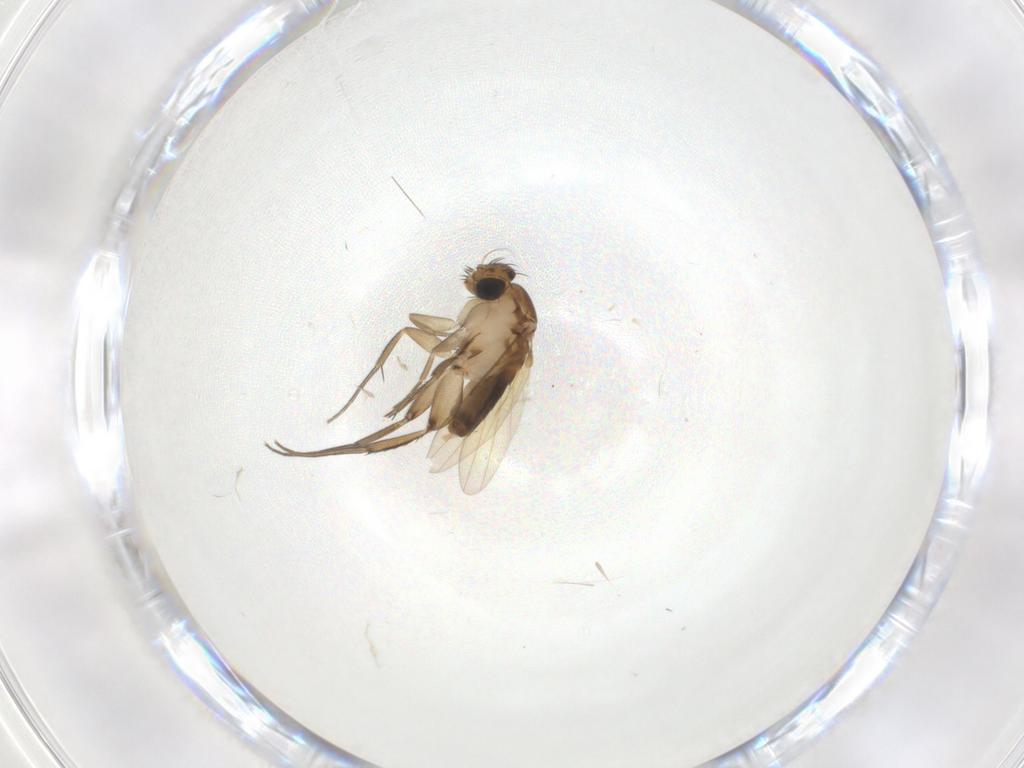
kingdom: Animalia
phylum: Arthropoda
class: Insecta
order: Diptera
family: Phoridae
